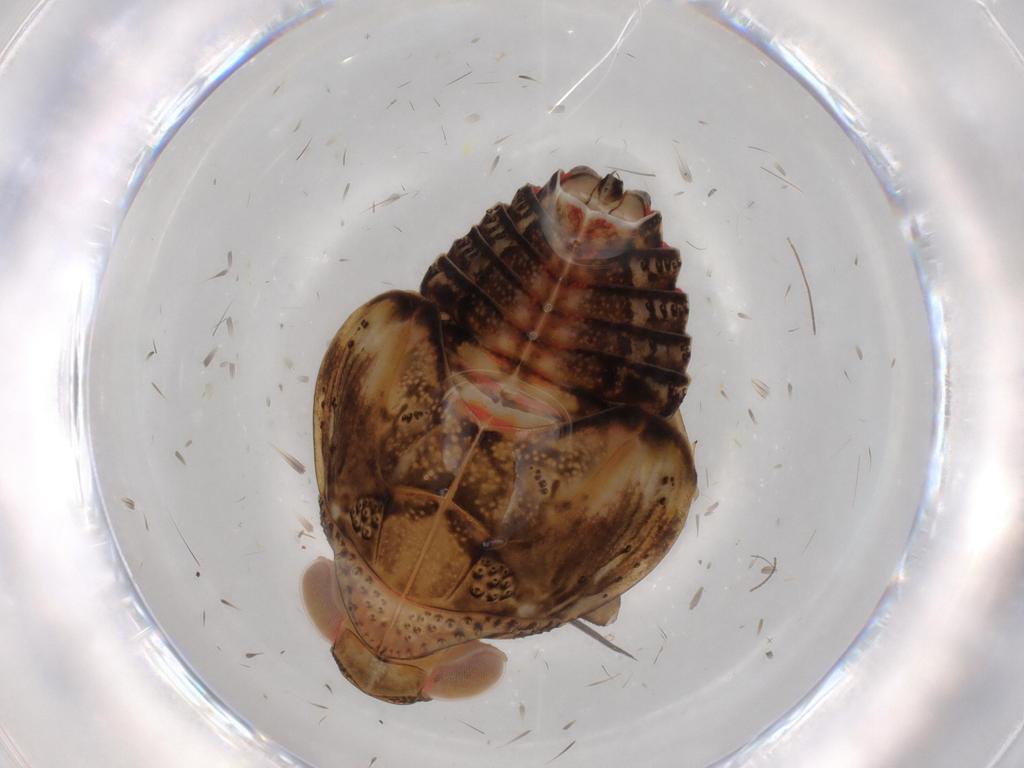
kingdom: Animalia
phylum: Arthropoda
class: Insecta
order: Hemiptera
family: Issidae
